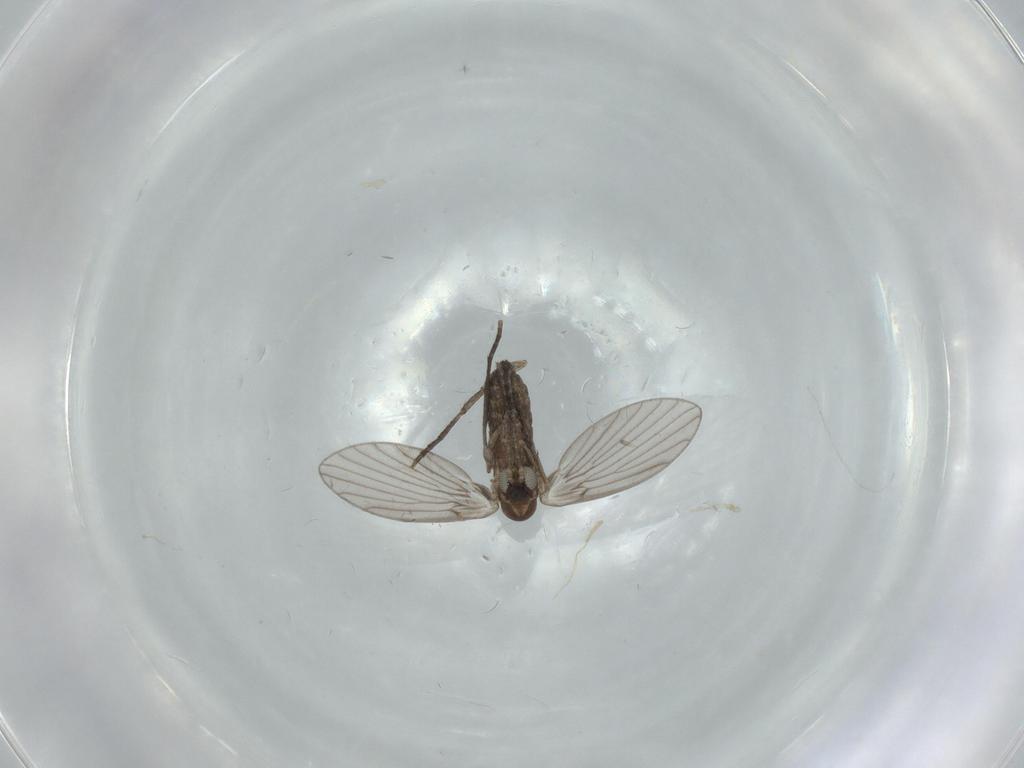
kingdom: Animalia
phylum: Arthropoda
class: Insecta
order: Diptera
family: Psychodidae
